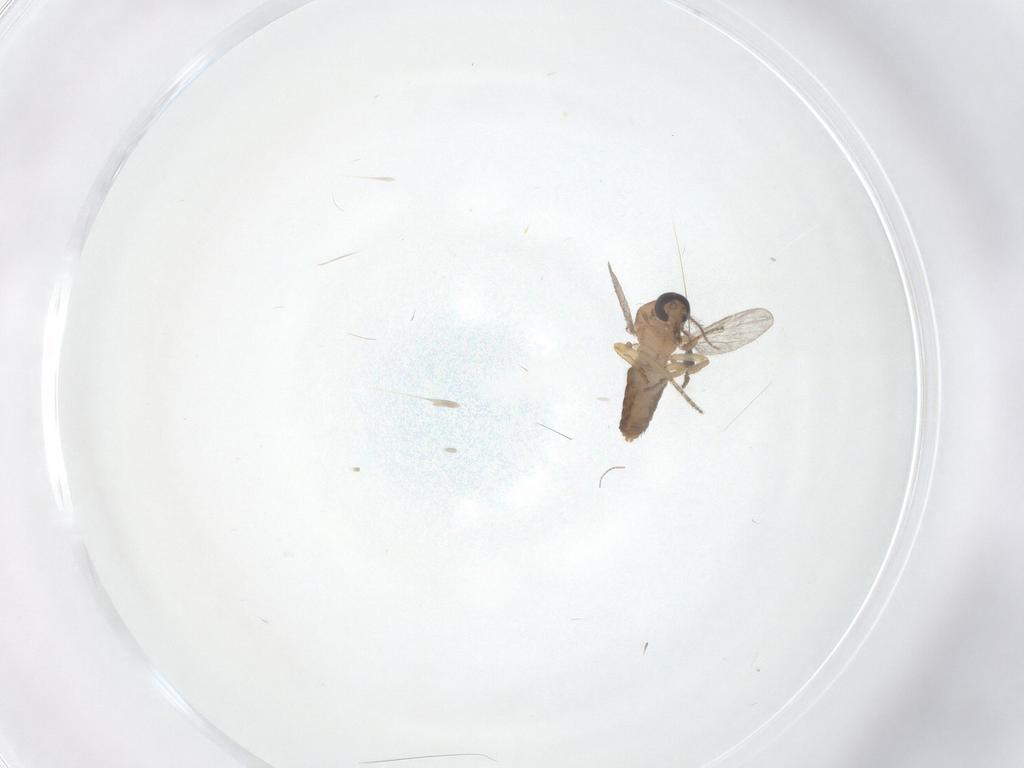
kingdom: Animalia
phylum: Arthropoda
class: Insecta
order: Diptera
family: Ceratopogonidae
